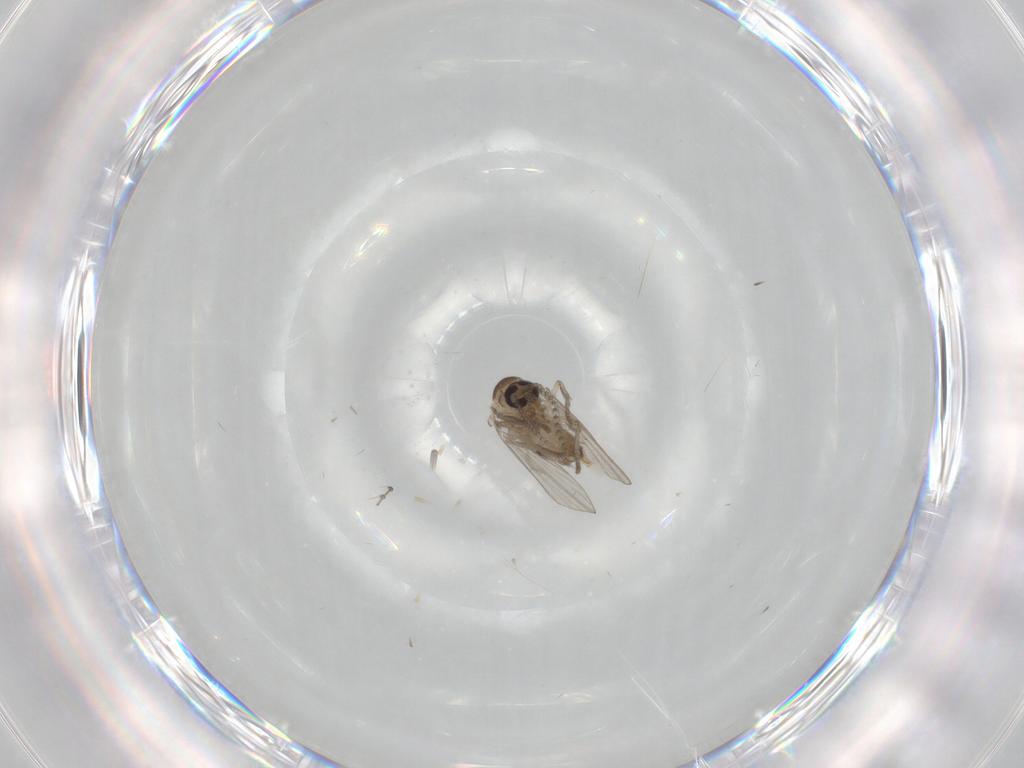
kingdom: Animalia
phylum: Arthropoda
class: Insecta
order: Diptera
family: Psychodidae
